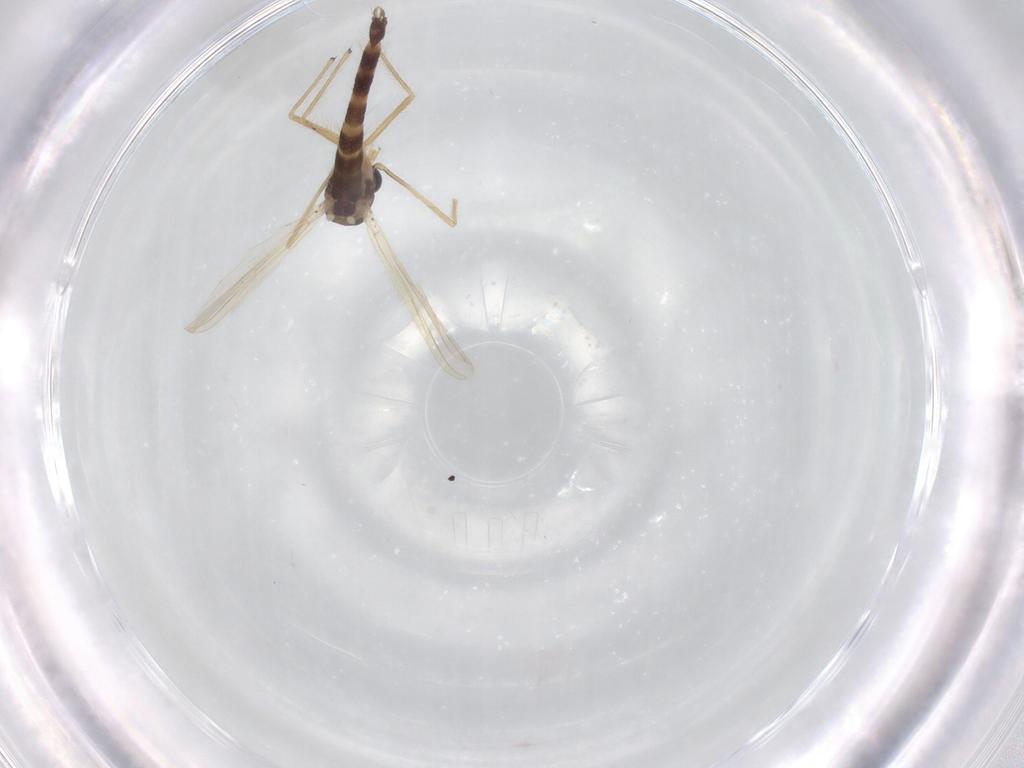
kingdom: Animalia
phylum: Arthropoda
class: Insecta
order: Diptera
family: Chironomidae
